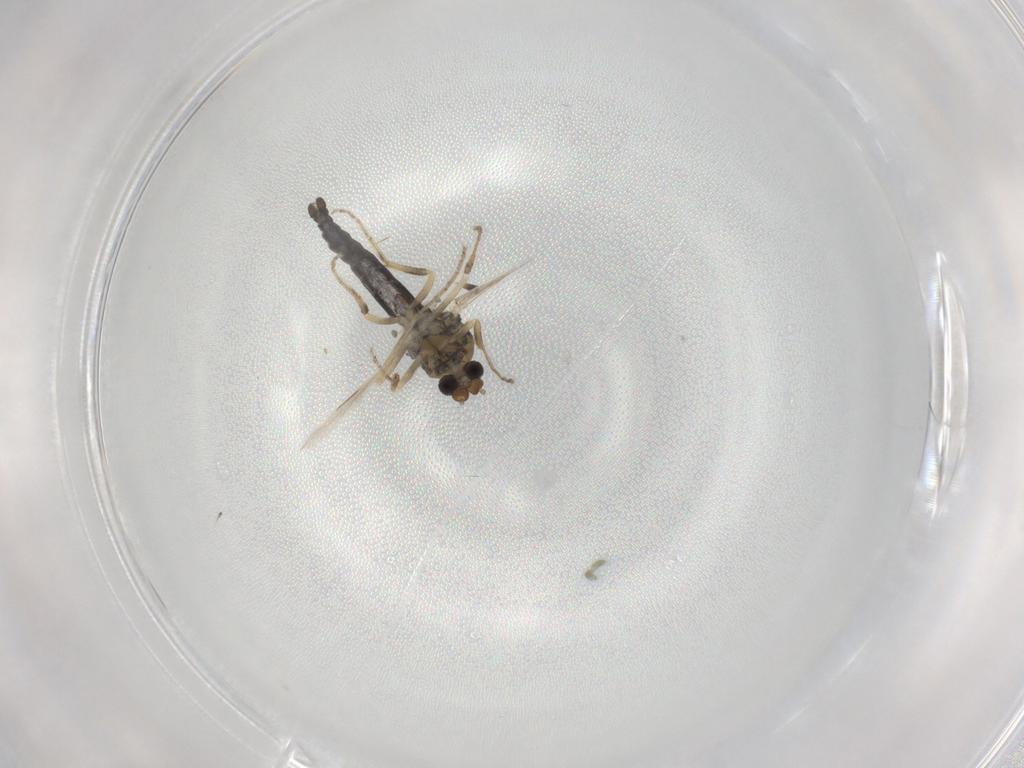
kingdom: Animalia
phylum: Arthropoda
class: Insecta
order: Diptera
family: Ceratopogonidae
